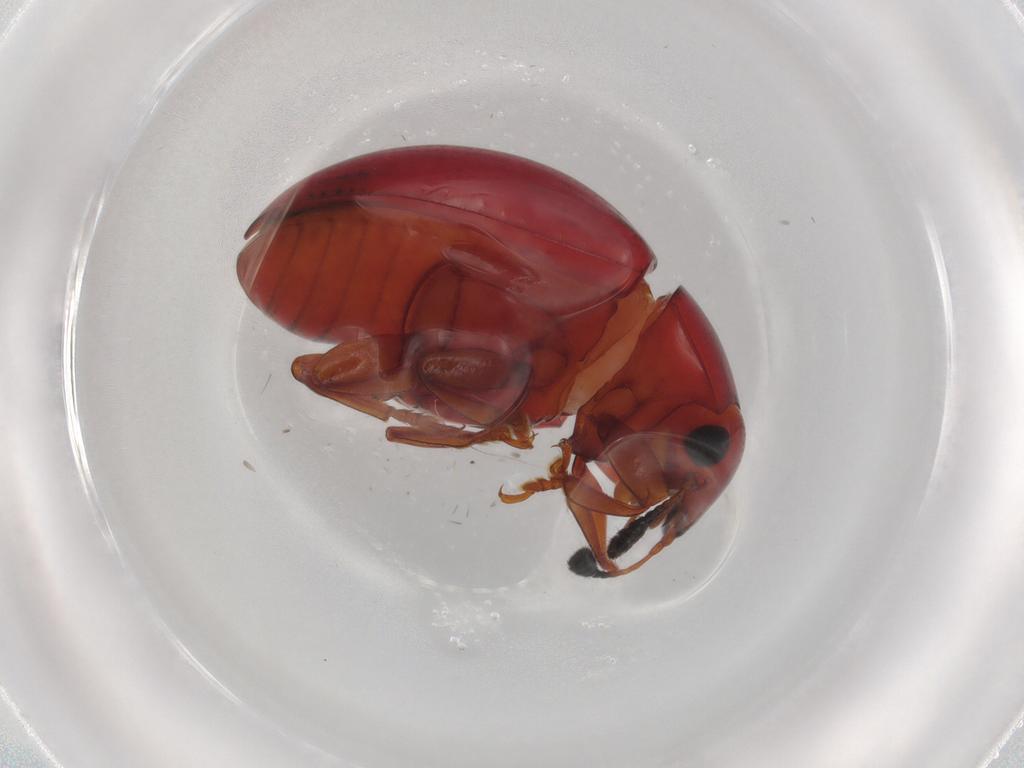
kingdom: Animalia
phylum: Arthropoda
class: Insecta
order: Coleoptera
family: Erotylidae
